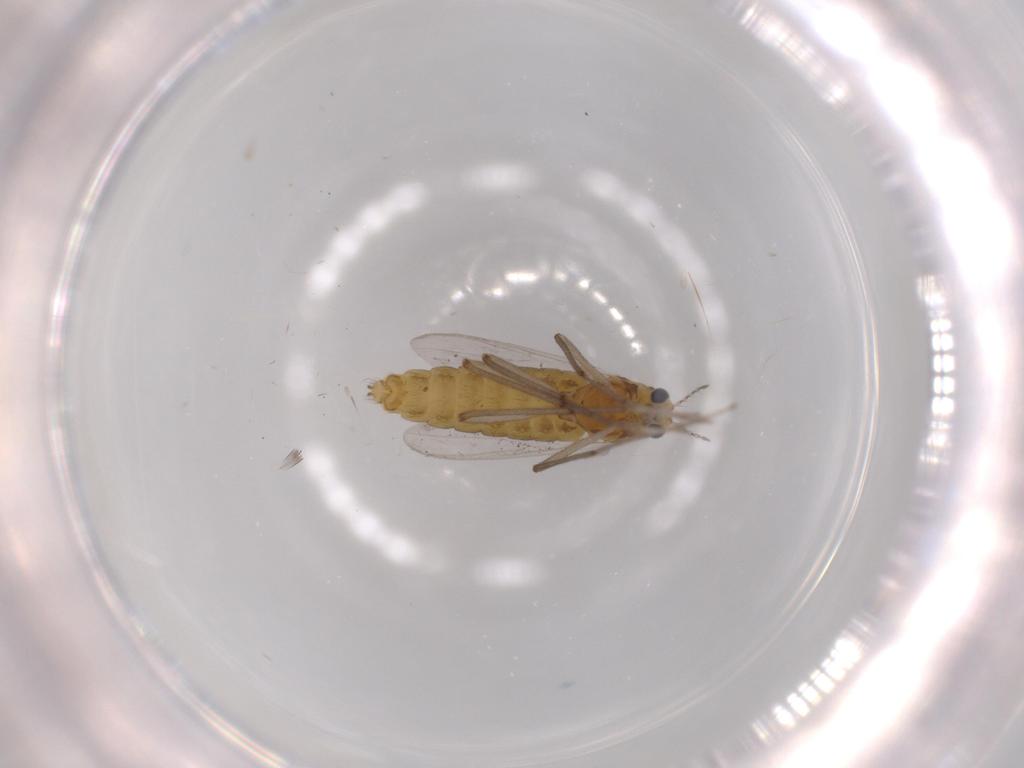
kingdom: Animalia
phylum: Arthropoda
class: Insecta
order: Diptera
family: Chironomidae
